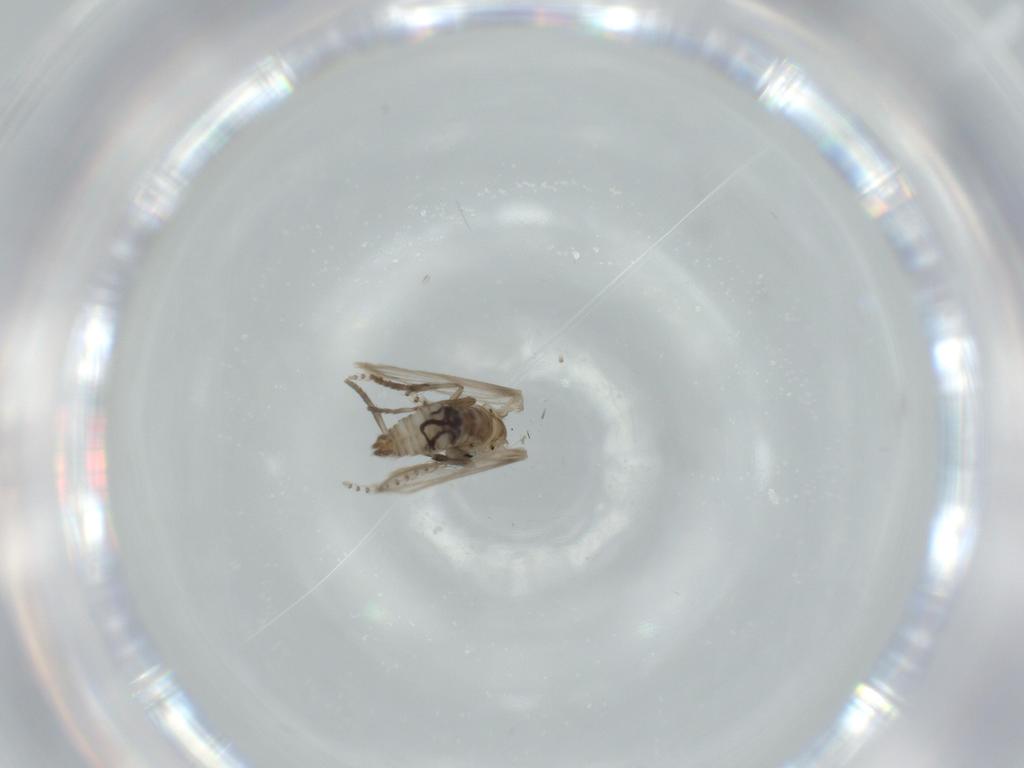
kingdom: Animalia
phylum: Arthropoda
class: Insecta
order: Diptera
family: Psychodidae
